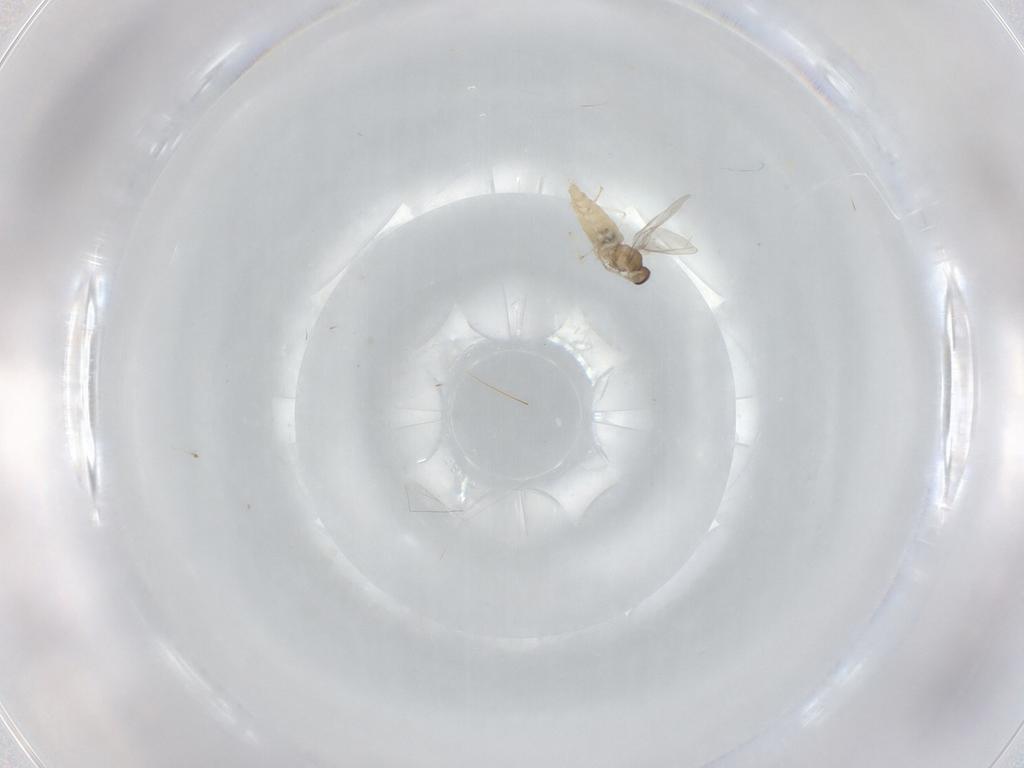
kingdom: Animalia
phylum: Arthropoda
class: Insecta
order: Diptera
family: Cecidomyiidae
